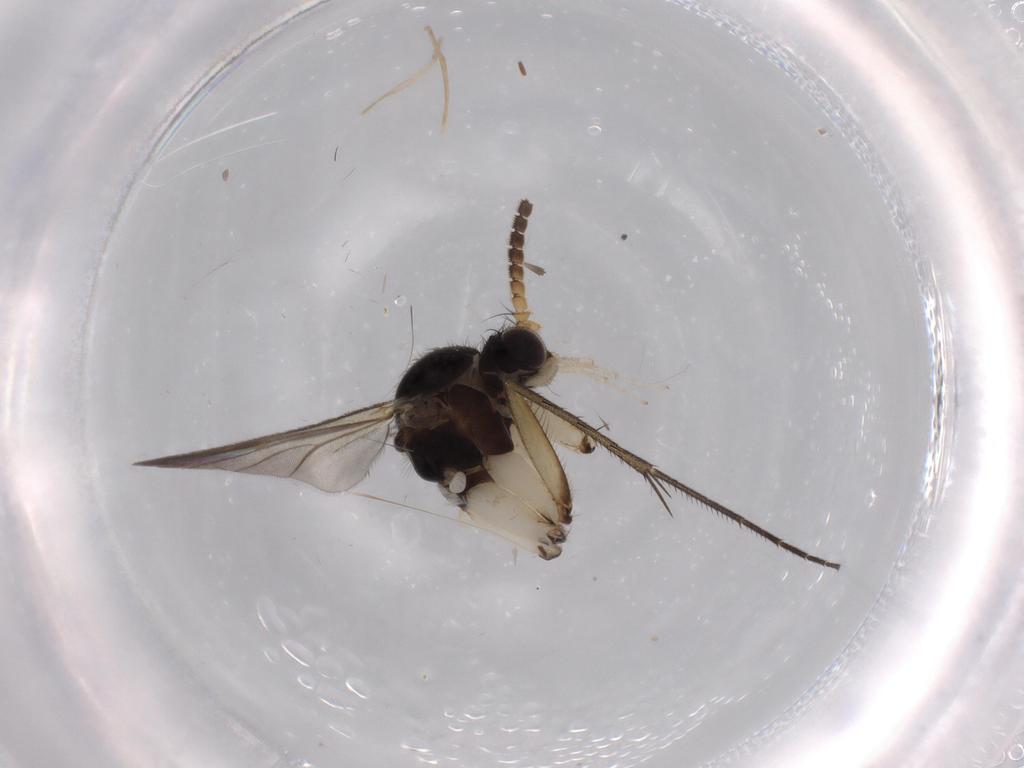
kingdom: Animalia
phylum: Arthropoda
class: Insecta
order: Diptera
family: Cecidomyiidae
